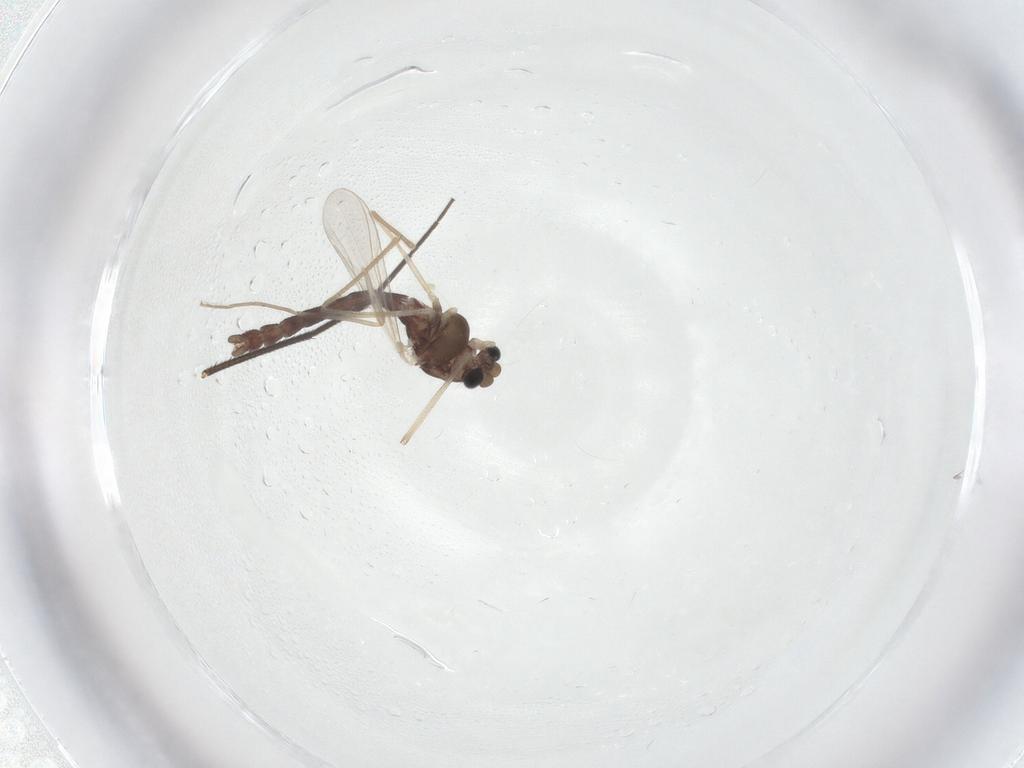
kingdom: Animalia
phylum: Arthropoda
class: Insecta
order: Diptera
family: Chironomidae
